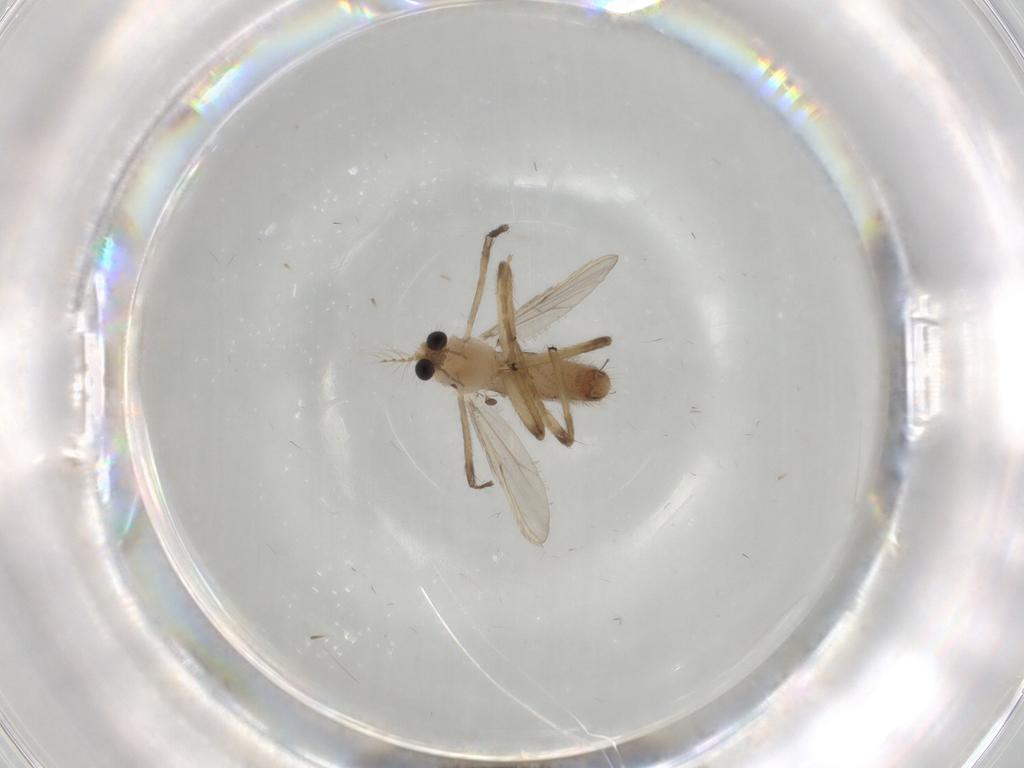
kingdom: Animalia
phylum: Arthropoda
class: Insecta
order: Diptera
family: Chironomidae
